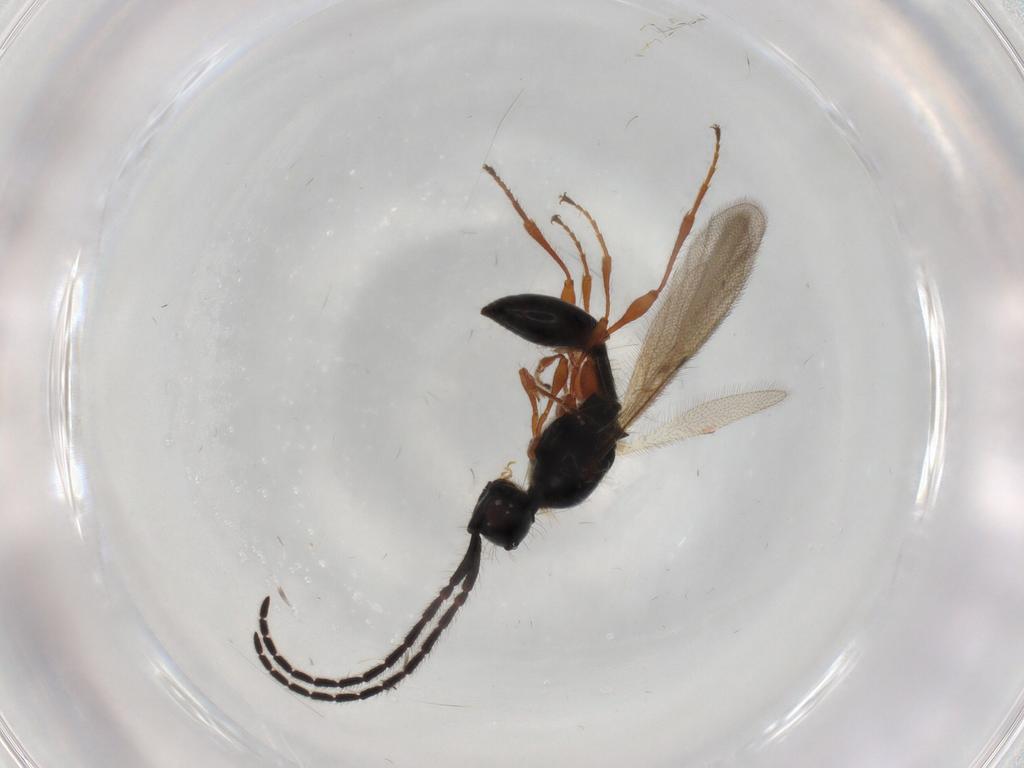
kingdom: Animalia
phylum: Arthropoda
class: Insecta
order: Hymenoptera
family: Diapriidae
